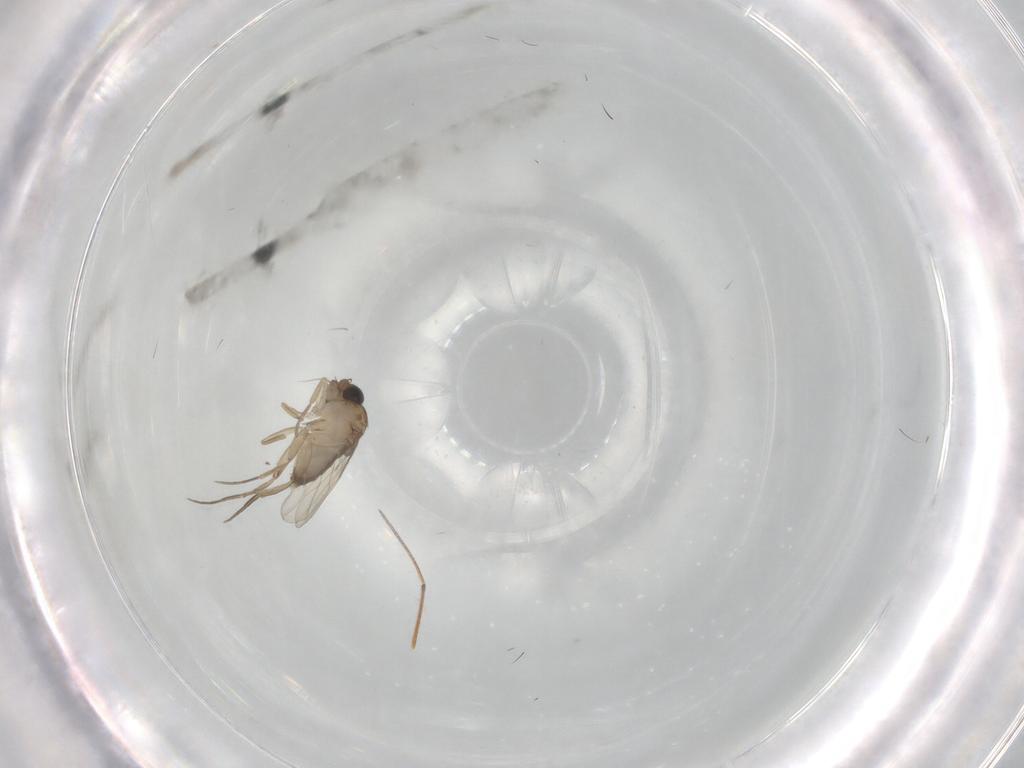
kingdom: Animalia
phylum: Arthropoda
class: Insecta
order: Diptera
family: Phoridae
